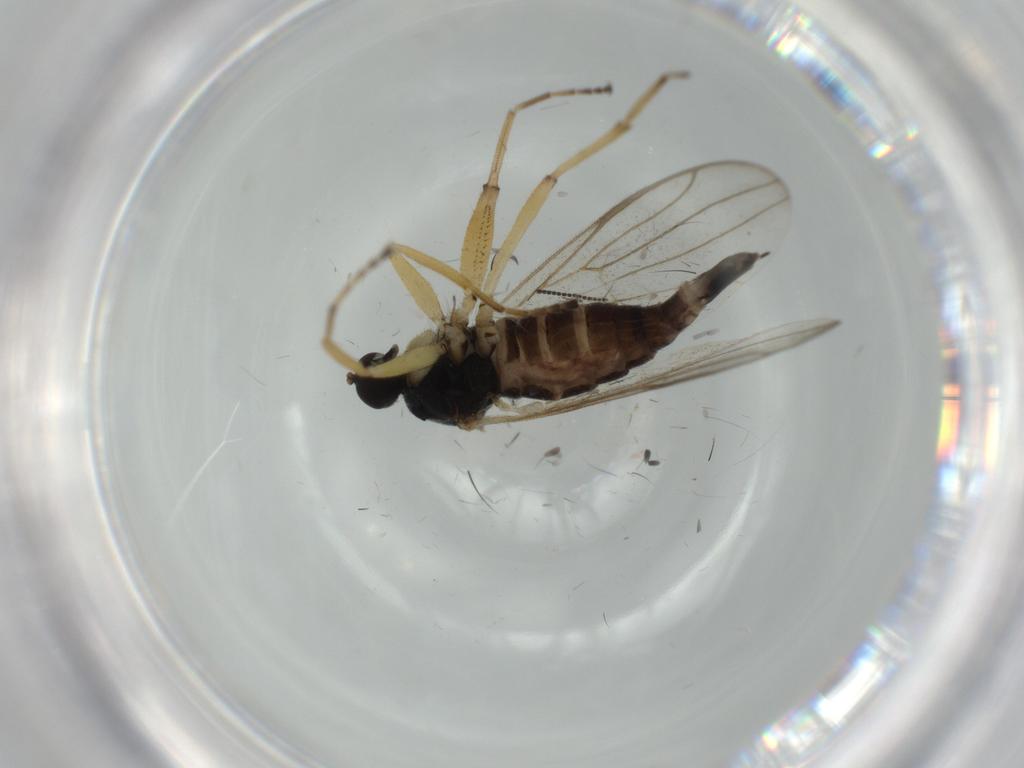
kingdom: Animalia
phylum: Arthropoda
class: Insecta
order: Diptera
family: Sciaridae
